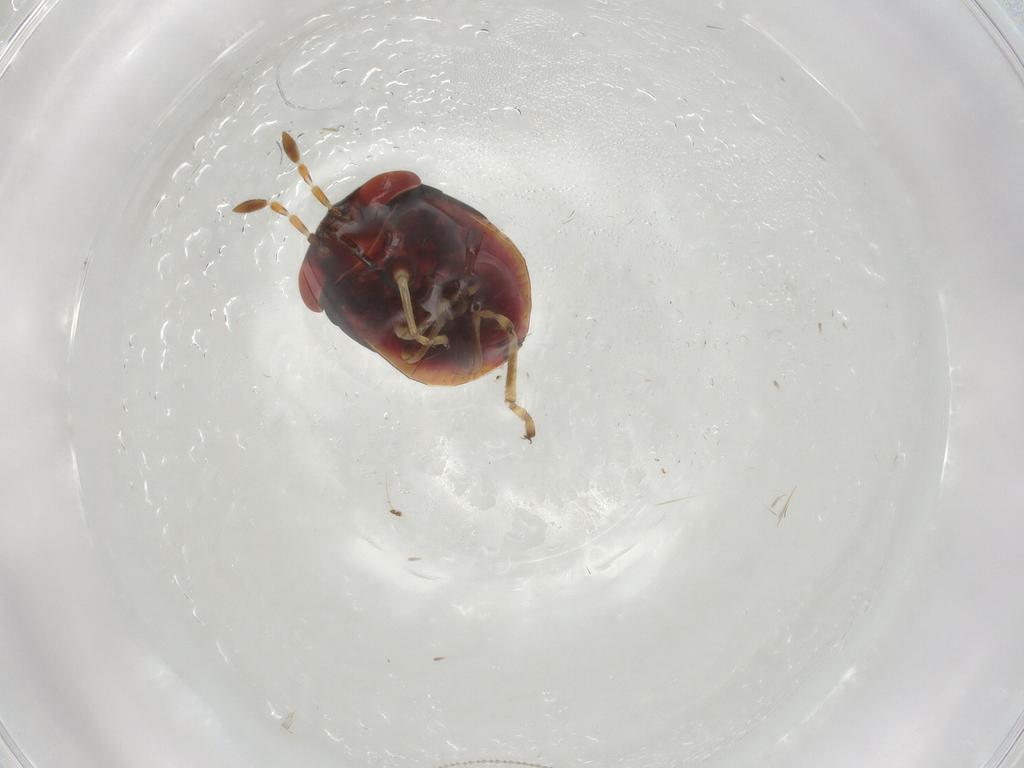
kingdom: Animalia
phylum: Arthropoda
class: Insecta
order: Hemiptera
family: Geocoridae
